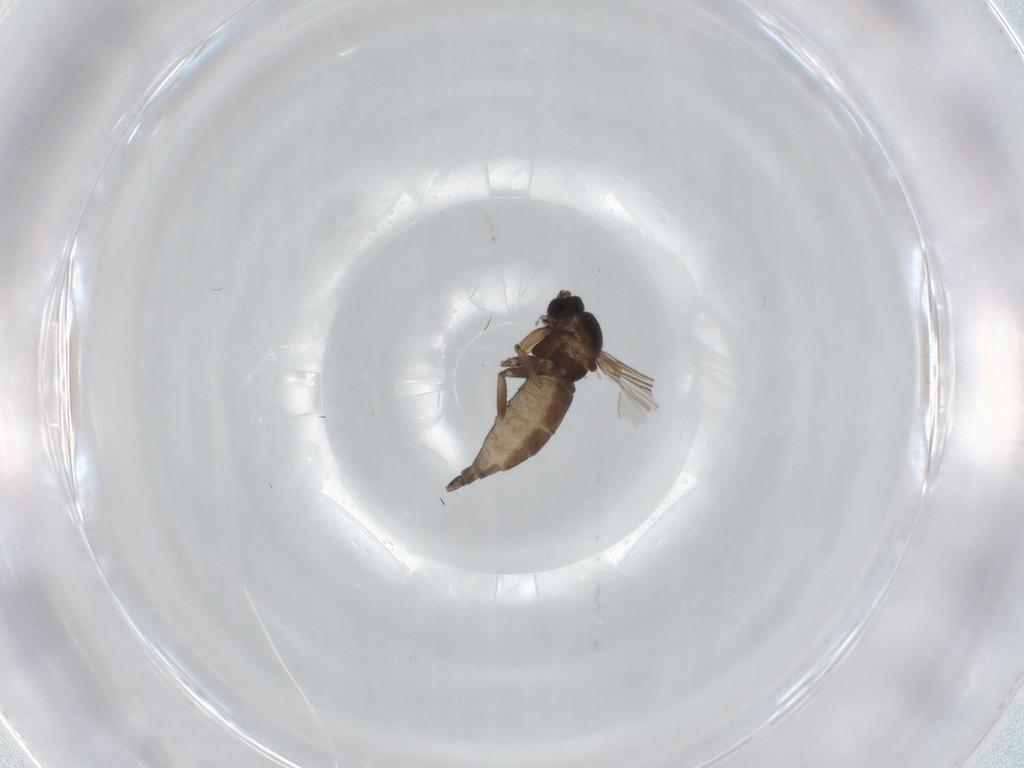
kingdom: Animalia
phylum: Arthropoda
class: Insecta
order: Diptera
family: Sciaridae
